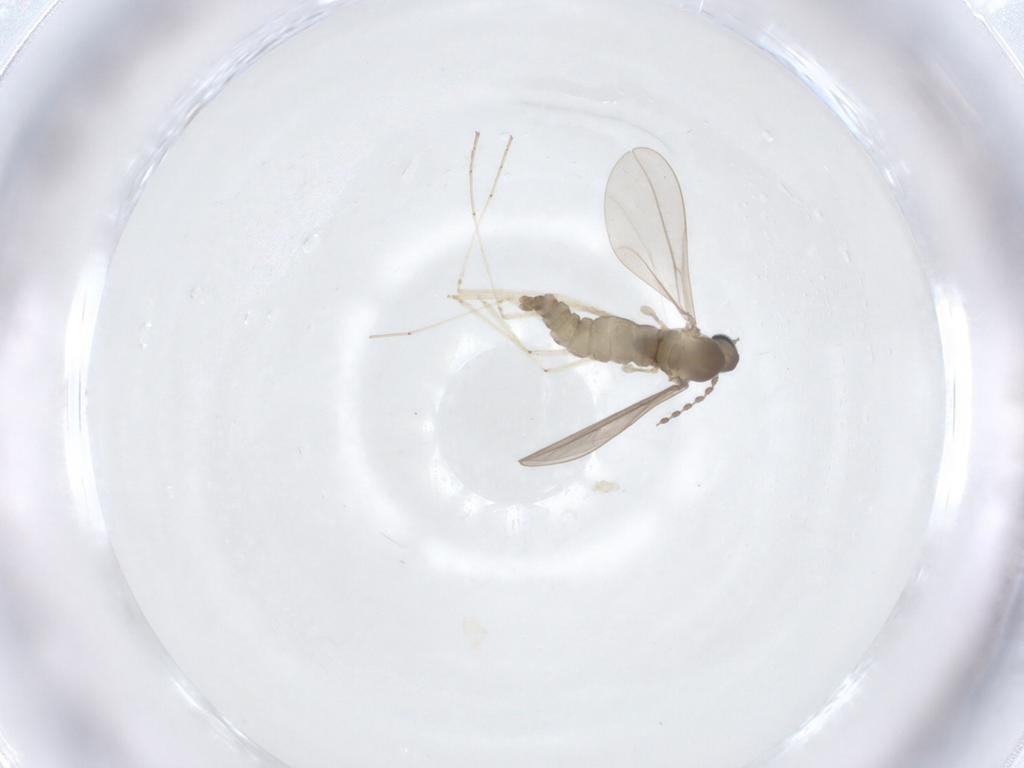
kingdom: Animalia
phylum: Arthropoda
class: Insecta
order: Diptera
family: Cecidomyiidae
